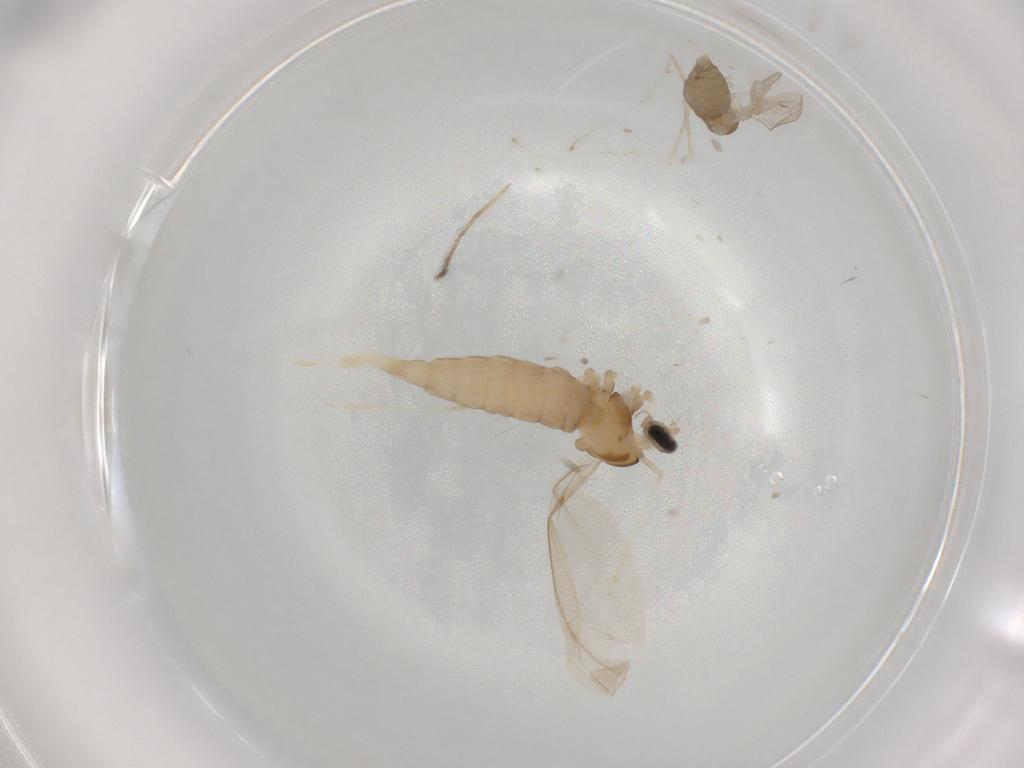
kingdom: Animalia
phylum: Arthropoda
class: Insecta
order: Diptera
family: Cecidomyiidae
